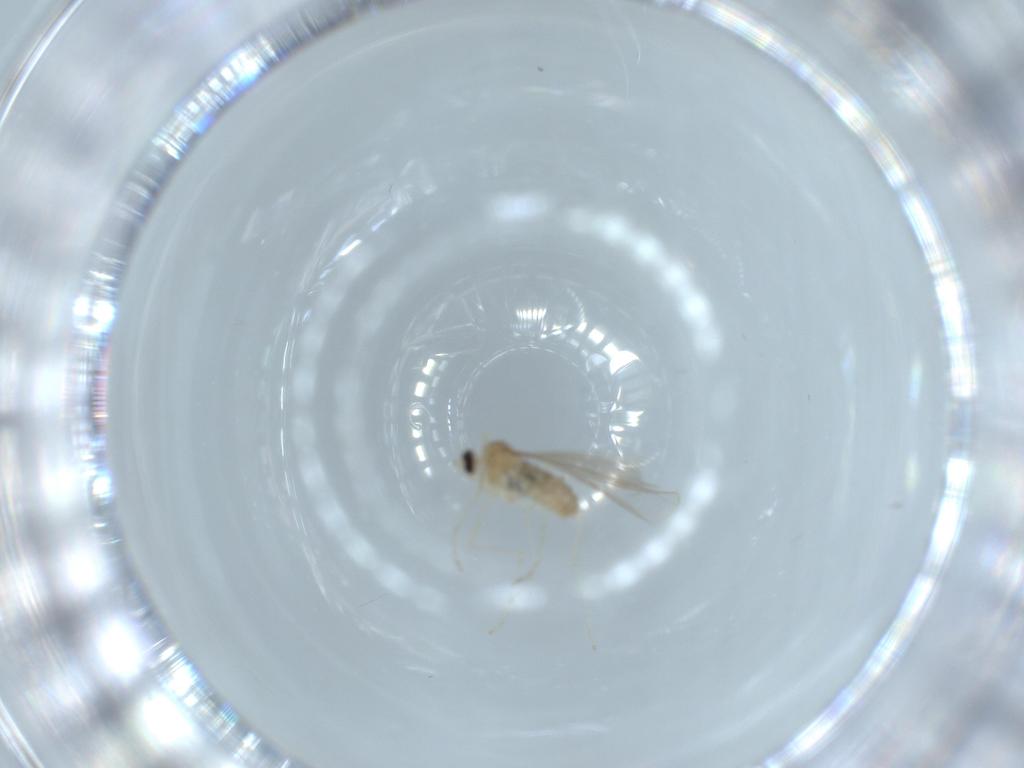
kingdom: Animalia
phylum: Arthropoda
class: Insecta
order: Diptera
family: Cecidomyiidae
